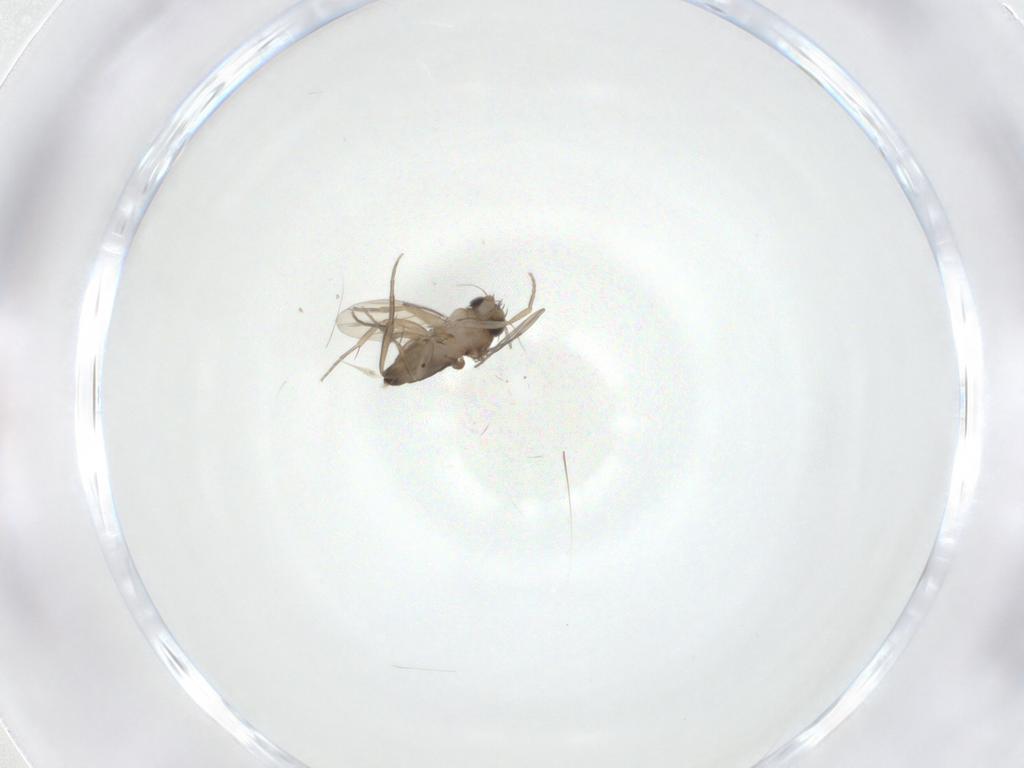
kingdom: Animalia
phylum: Arthropoda
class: Insecta
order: Diptera
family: Phoridae
